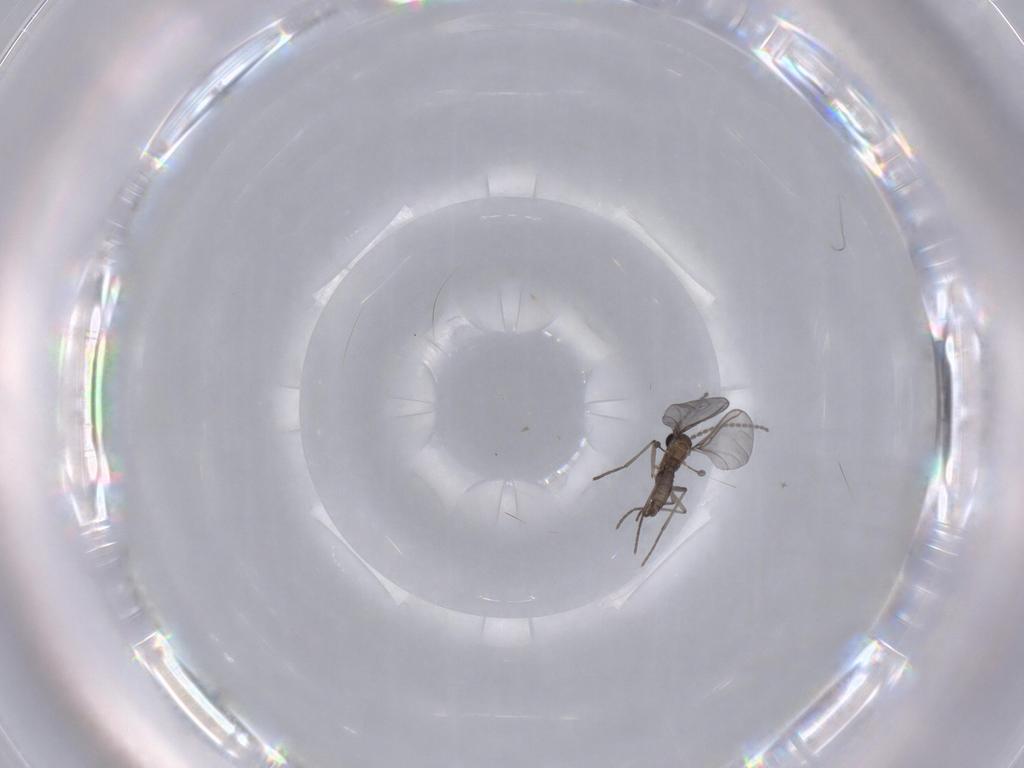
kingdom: Animalia
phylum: Arthropoda
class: Insecta
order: Diptera
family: Sciaridae
